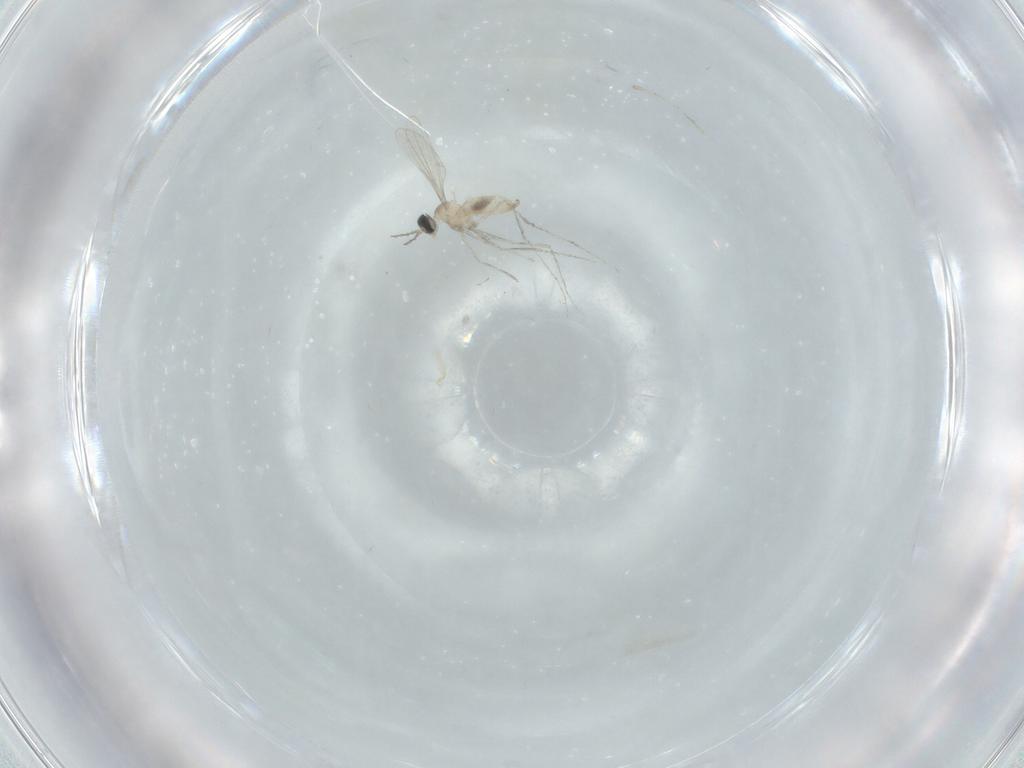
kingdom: Animalia
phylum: Arthropoda
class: Insecta
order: Diptera
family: Cecidomyiidae
